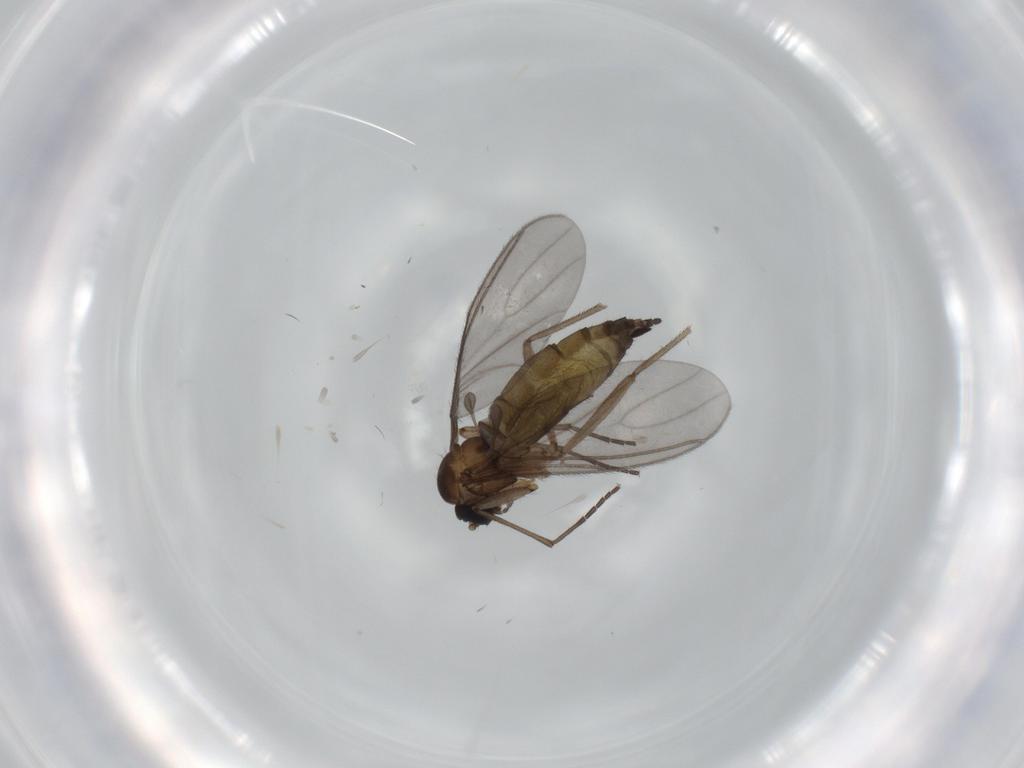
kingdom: Animalia
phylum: Arthropoda
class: Insecta
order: Diptera
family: Sciaridae
